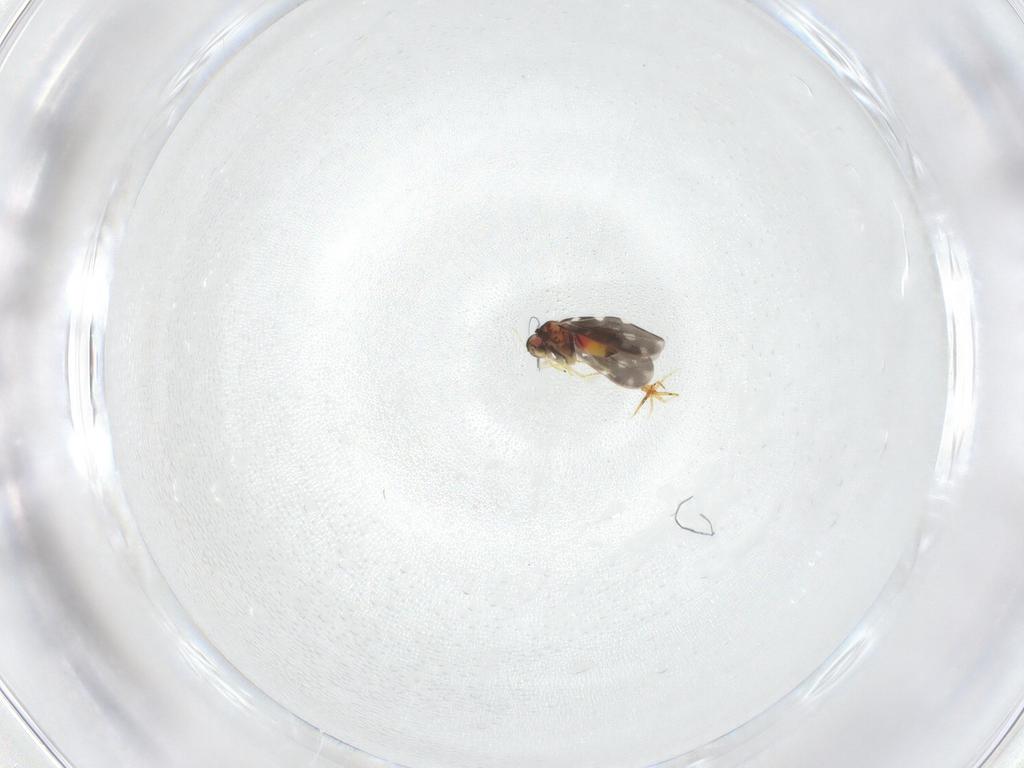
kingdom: Animalia
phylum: Arthropoda
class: Insecta
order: Hemiptera
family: Aleyrodidae
